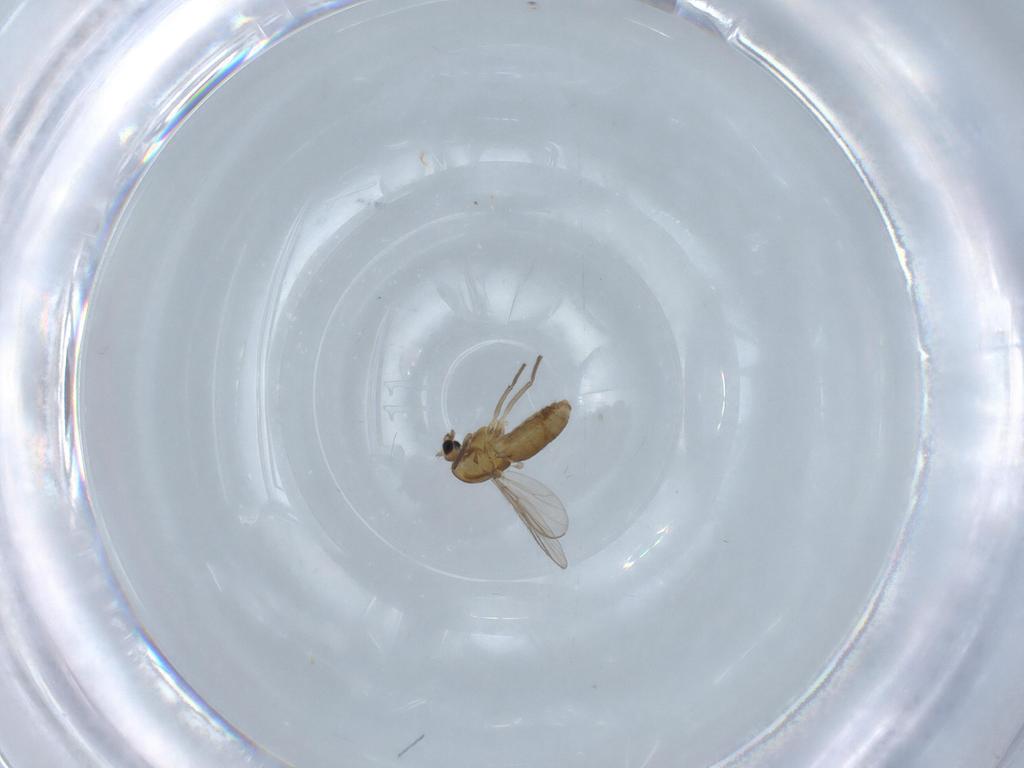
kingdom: Animalia
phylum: Arthropoda
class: Insecta
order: Diptera
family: Chironomidae
